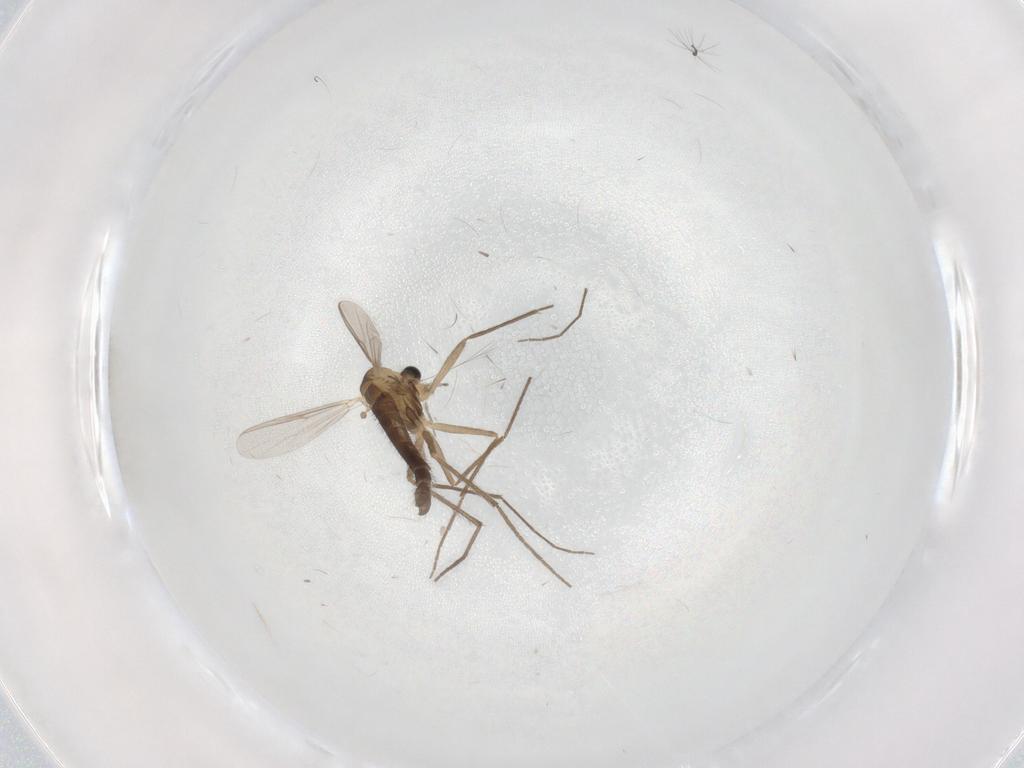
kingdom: Animalia
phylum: Arthropoda
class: Insecta
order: Diptera
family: Chironomidae
